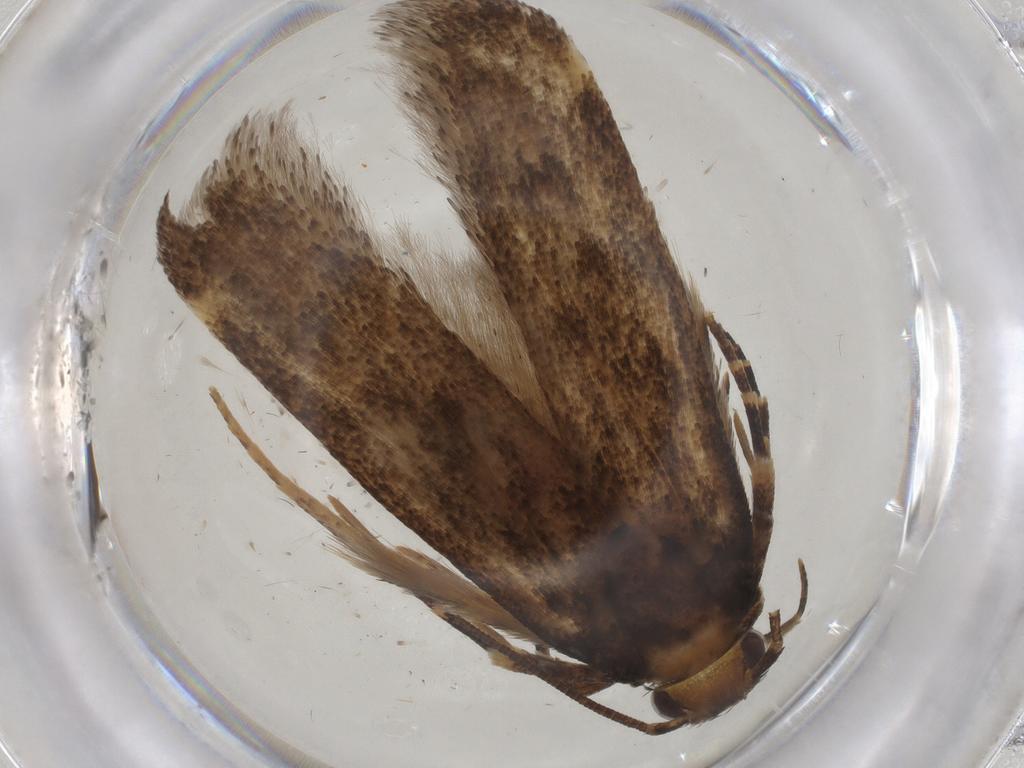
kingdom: Animalia
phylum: Arthropoda
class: Insecta
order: Lepidoptera
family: Gelechiidae
